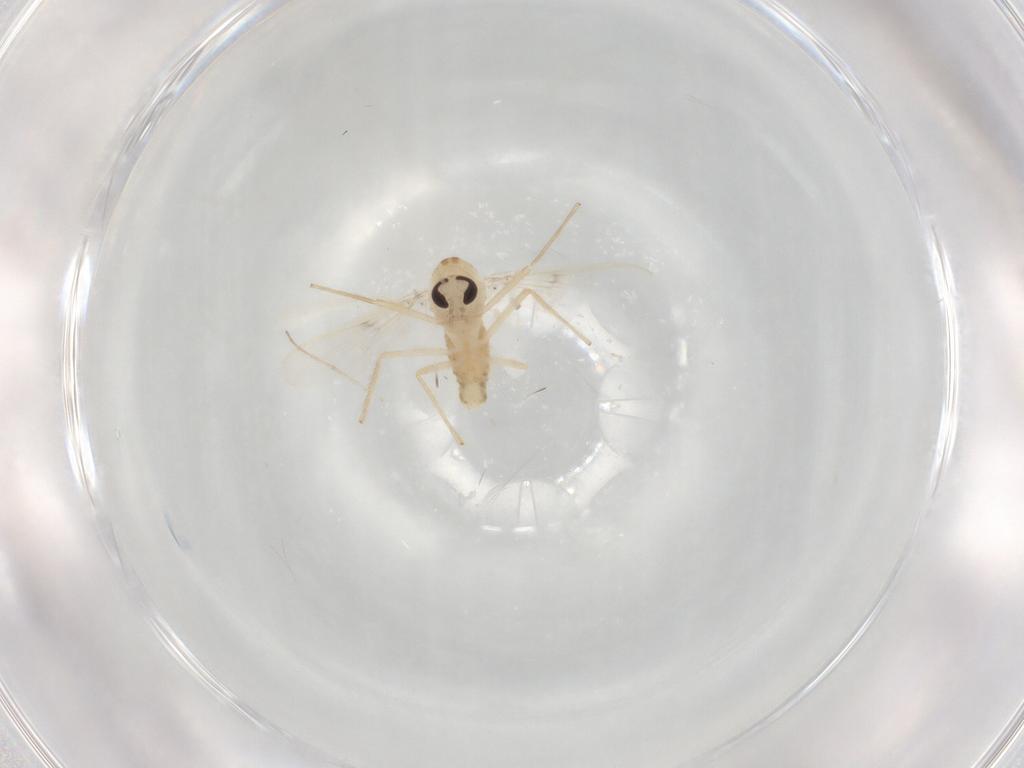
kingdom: Animalia
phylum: Arthropoda
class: Insecta
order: Diptera
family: Chironomidae
